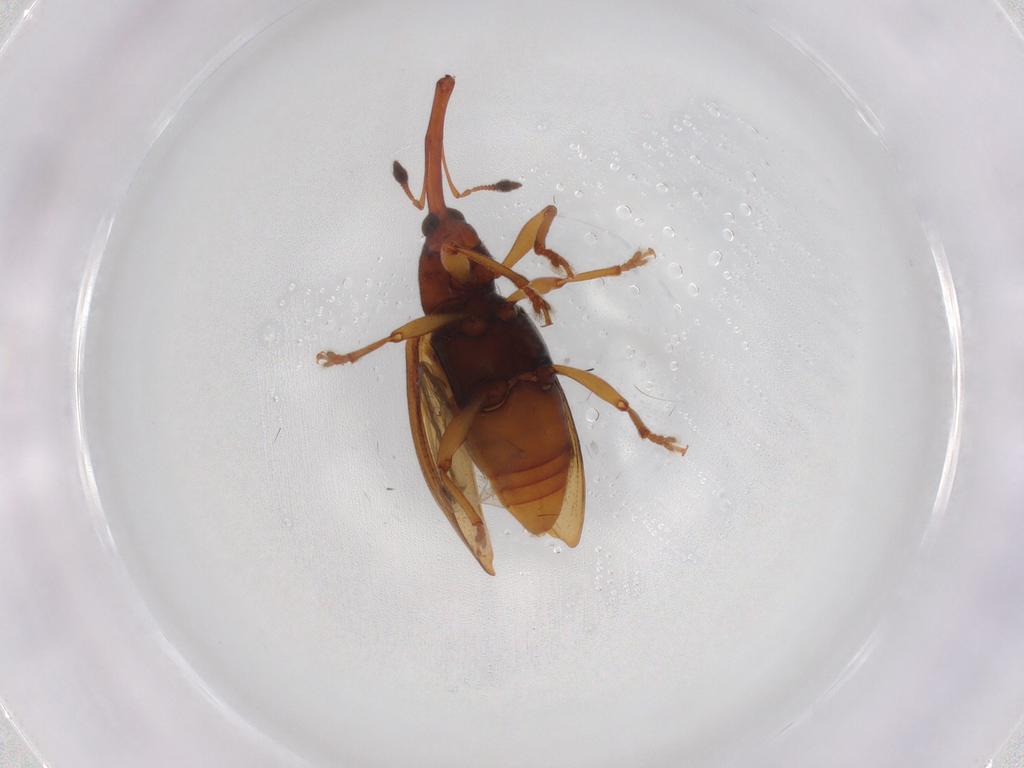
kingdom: Animalia
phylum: Arthropoda
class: Insecta
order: Coleoptera
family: Curculionidae
